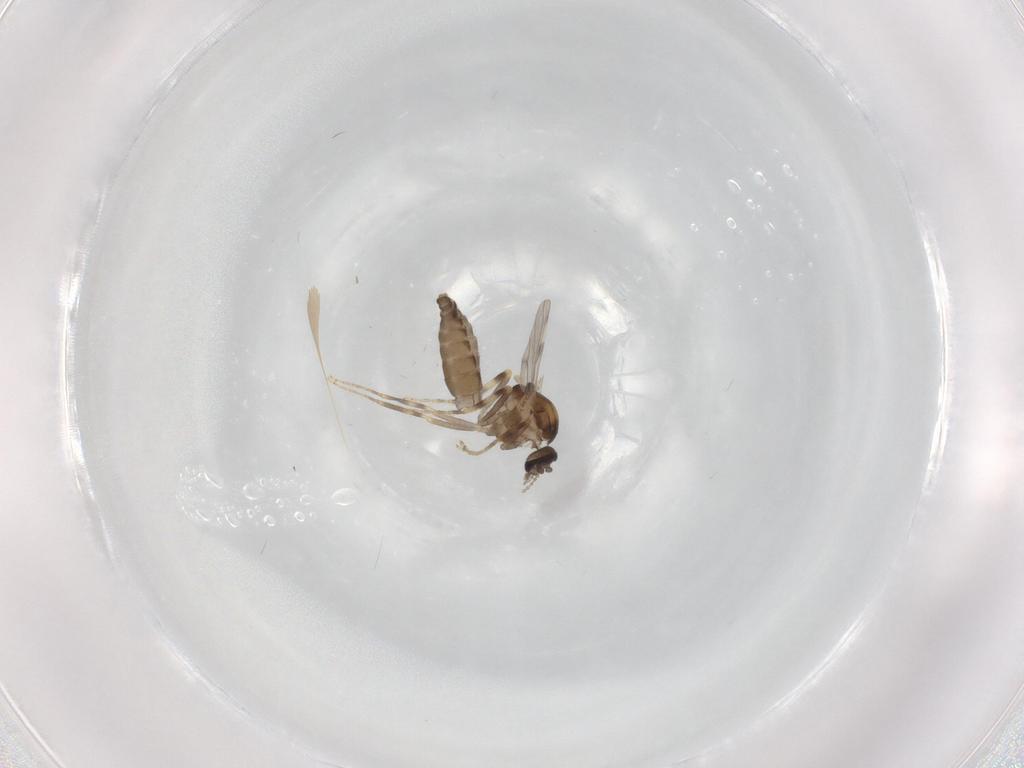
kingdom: Animalia
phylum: Arthropoda
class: Insecta
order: Diptera
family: Ceratopogonidae
